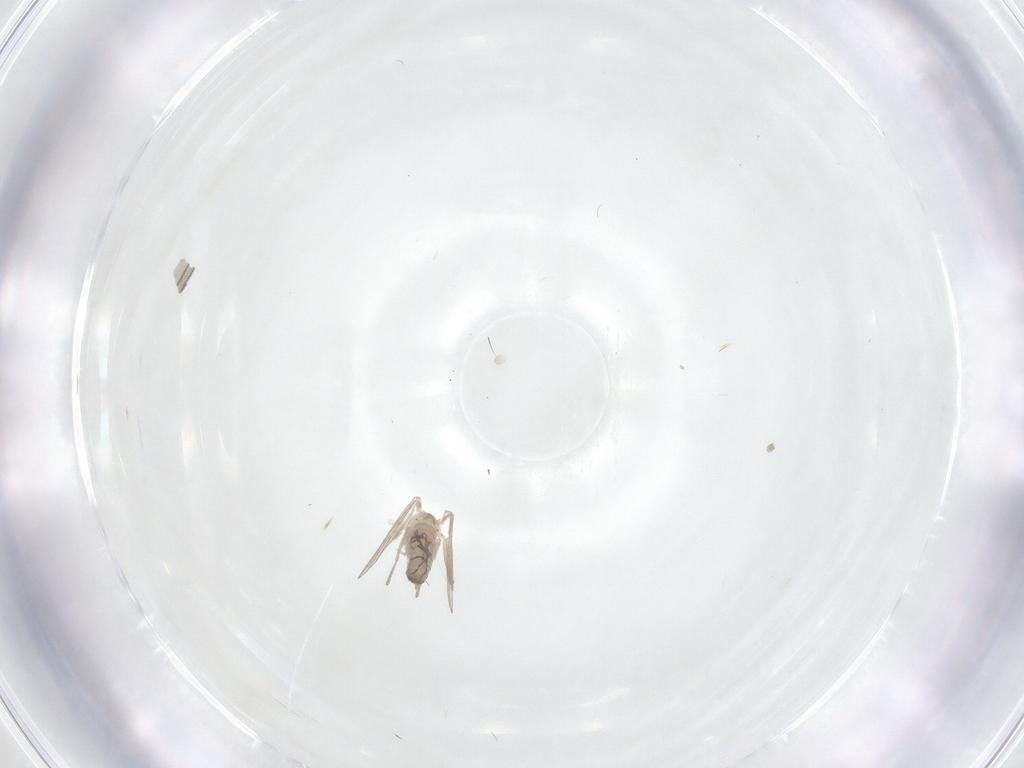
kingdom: Animalia
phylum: Arthropoda
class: Insecta
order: Diptera
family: Psychodidae
